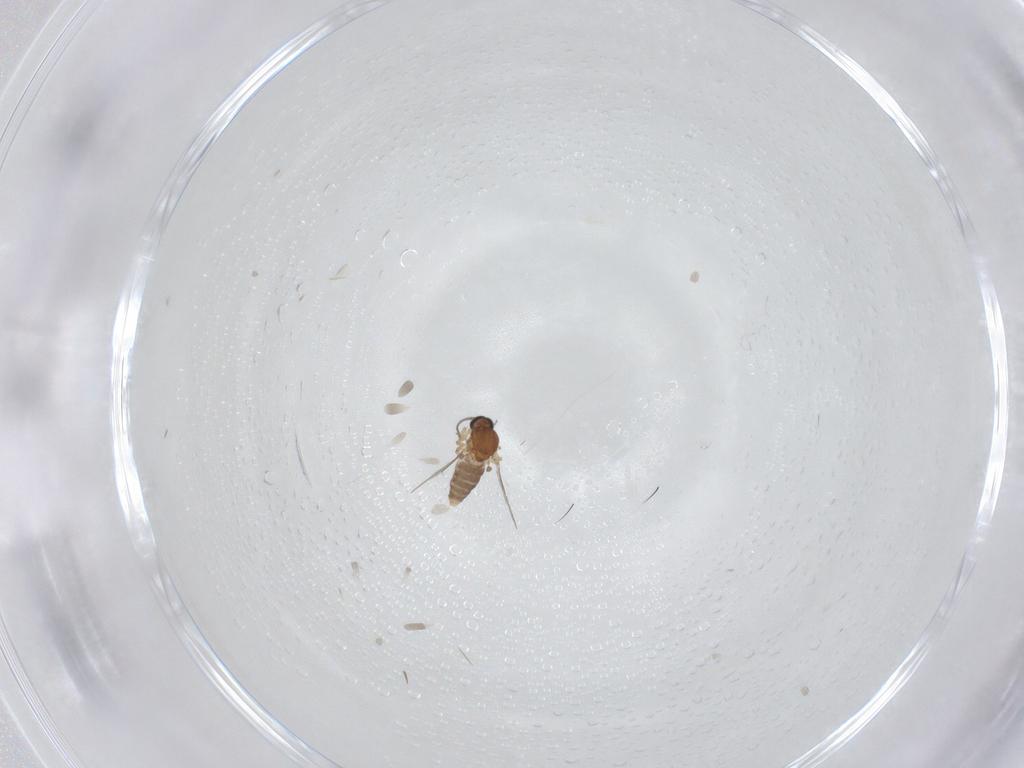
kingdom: Animalia
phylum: Arthropoda
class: Insecta
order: Diptera
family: Ceratopogonidae
